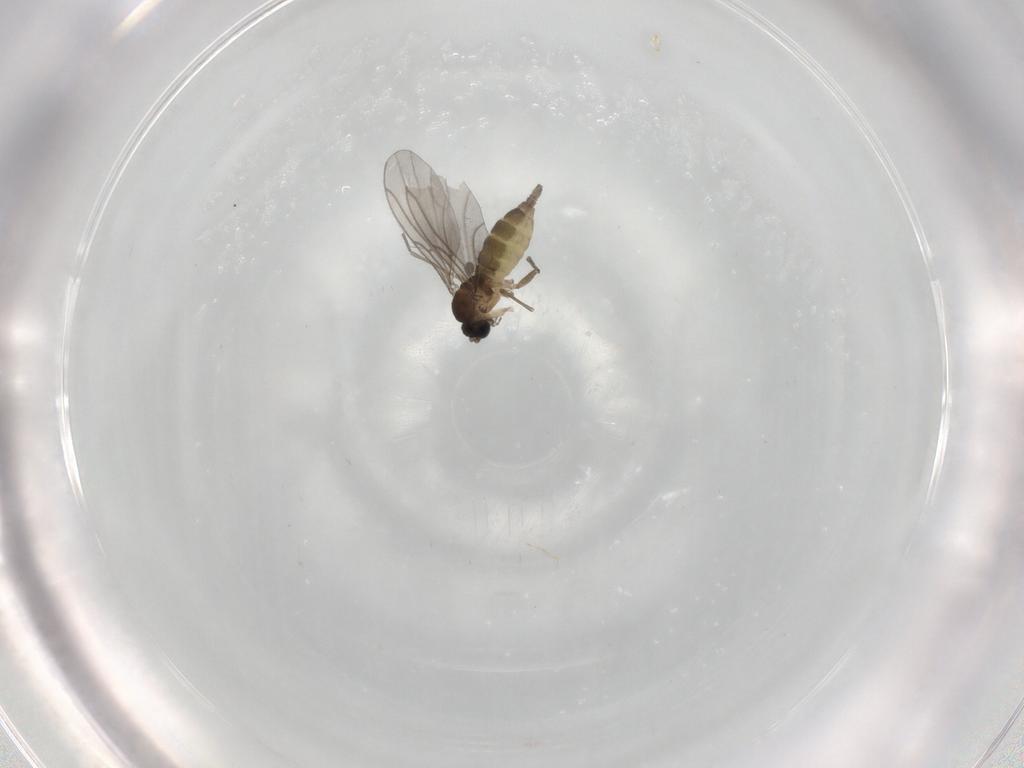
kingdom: Animalia
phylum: Arthropoda
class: Insecta
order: Diptera
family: Sciaridae
